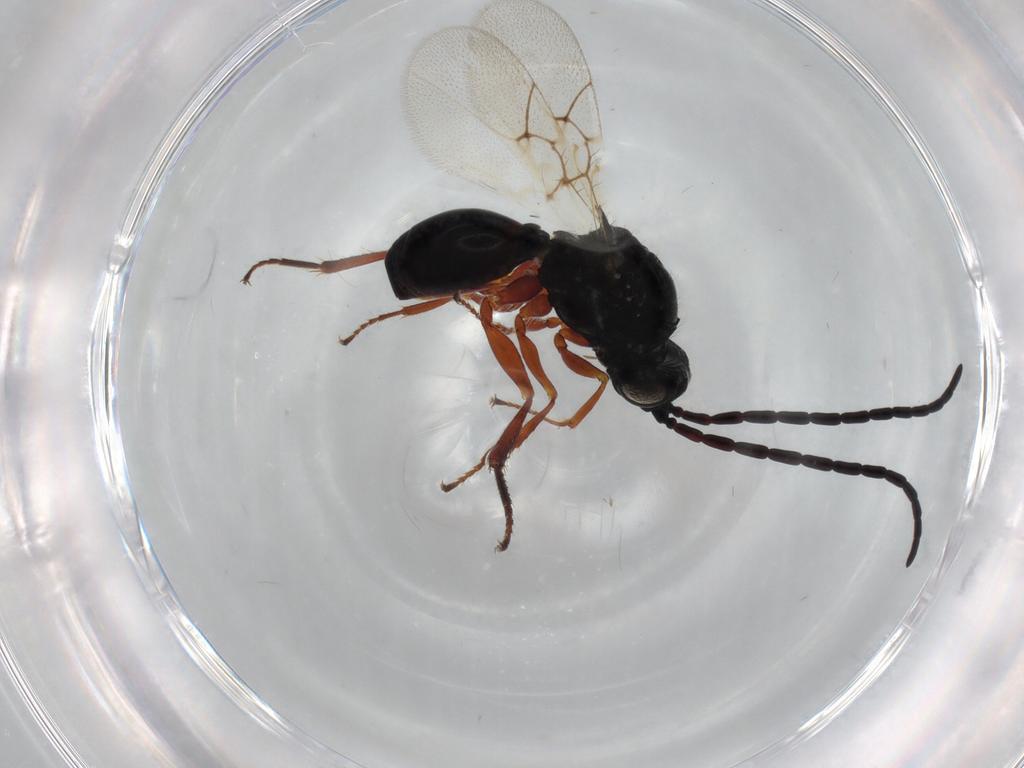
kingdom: Animalia
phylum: Arthropoda
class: Insecta
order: Hymenoptera
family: Figitidae
